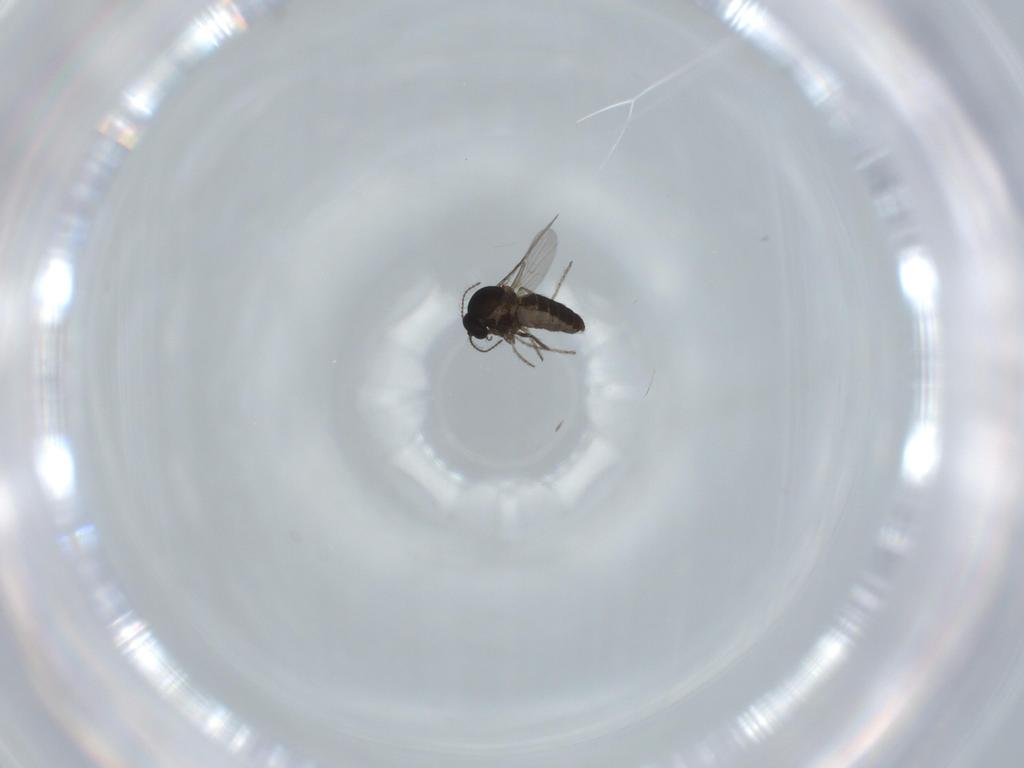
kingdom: Animalia
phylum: Arthropoda
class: Insecta
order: Diptera
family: Ceratopogonidae
